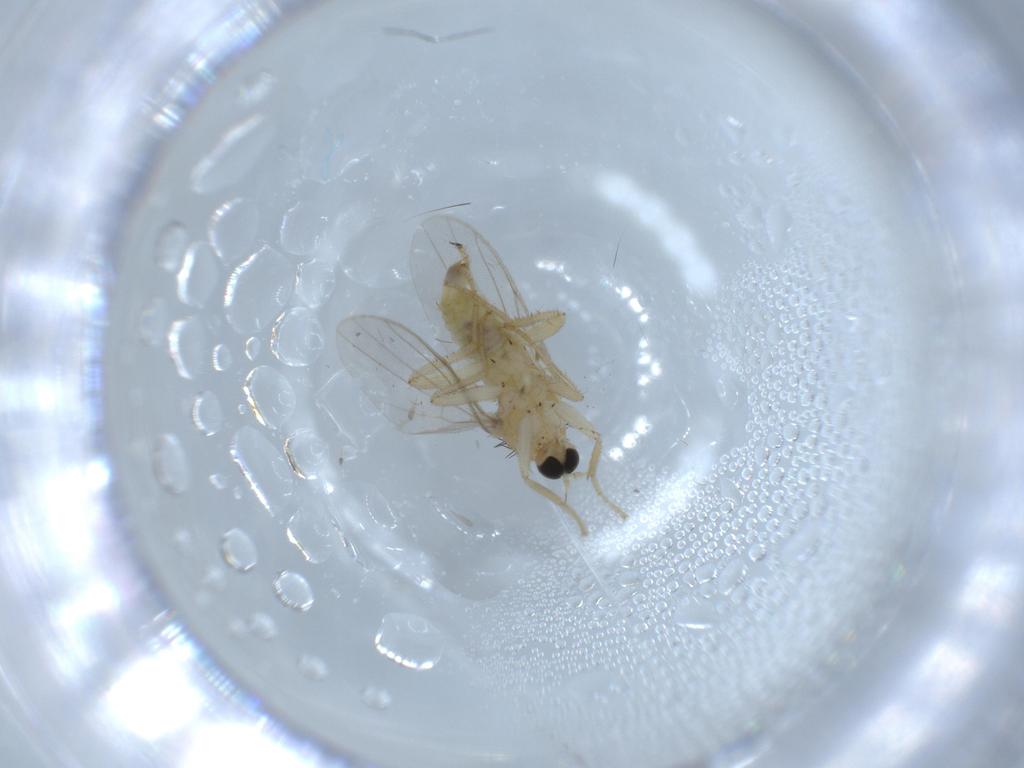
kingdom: Animalia
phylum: Arthropoda
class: Insecta
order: Diptera
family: Hybotidae
